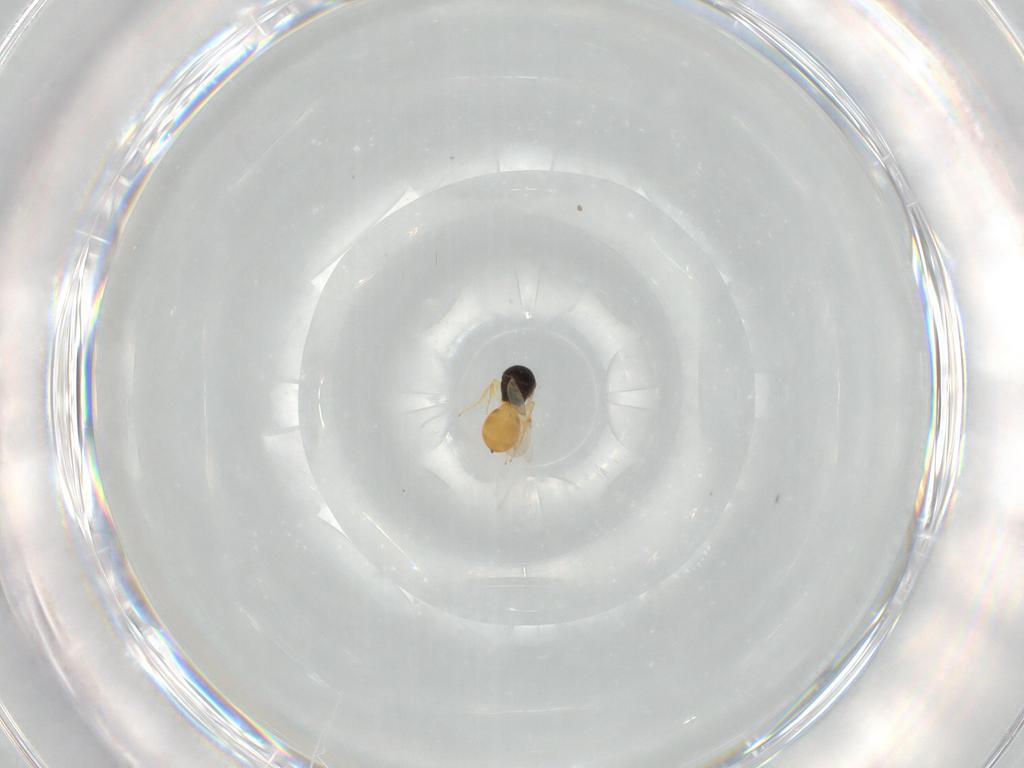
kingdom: Animalia
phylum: Arthropoda
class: Insecta
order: Hymenoptera
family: Scelionidae
